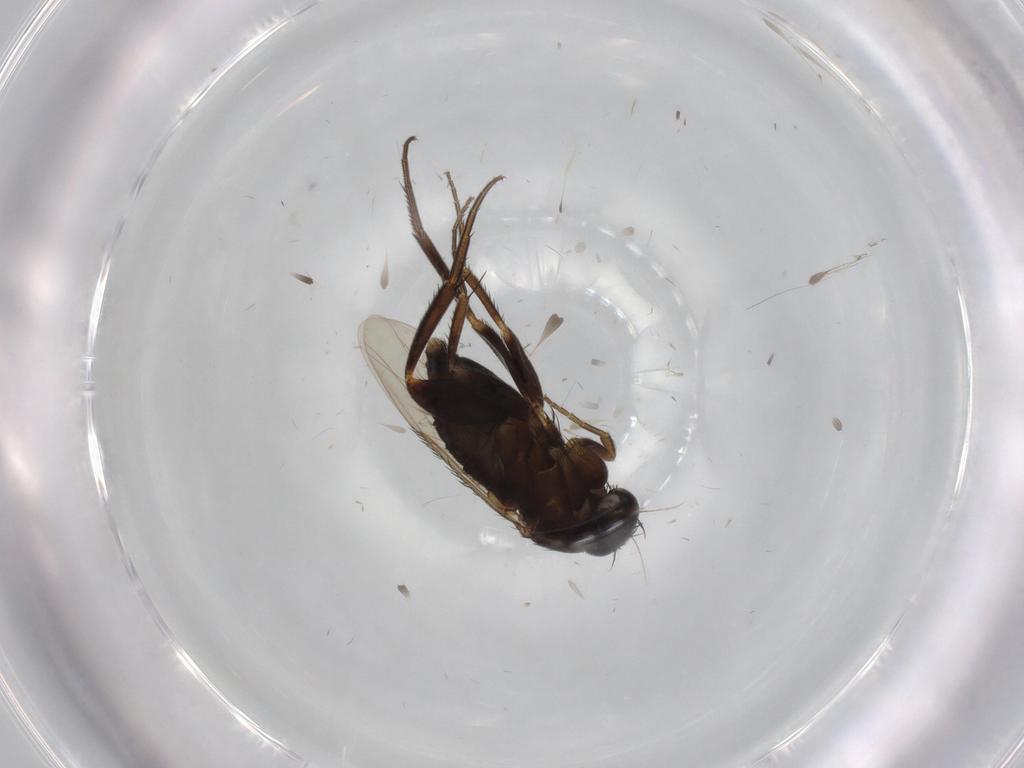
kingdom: Animalia
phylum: Arthropoda
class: Insecta
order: Diptera
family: Phoridae
